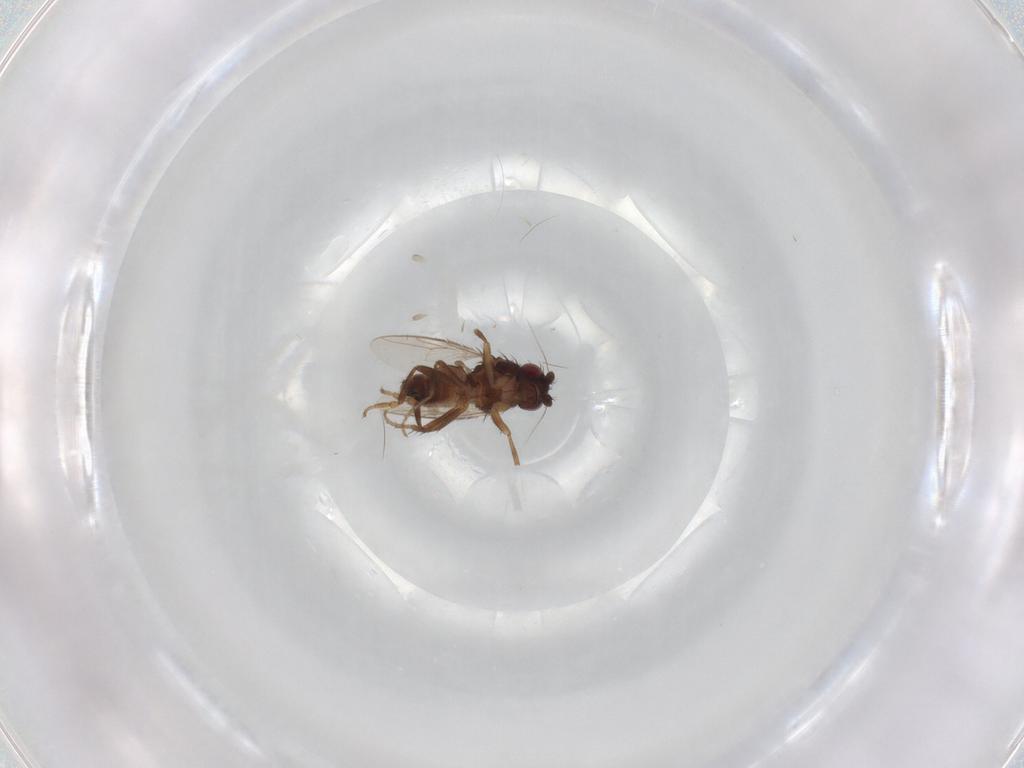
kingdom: Animalia
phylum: Arthropoda
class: Insecta
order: Diptera
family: Sphaeroceridae
